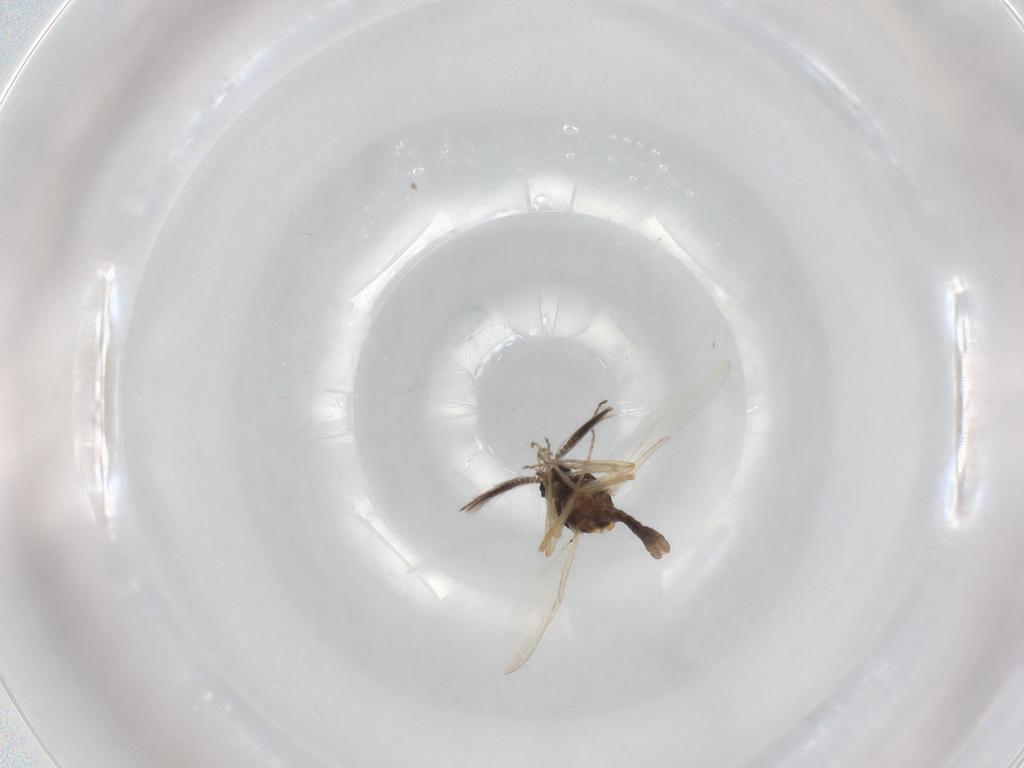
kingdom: Animalia
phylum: Arthropoda
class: Insecta
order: Diptera
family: Ceratopogonidae
